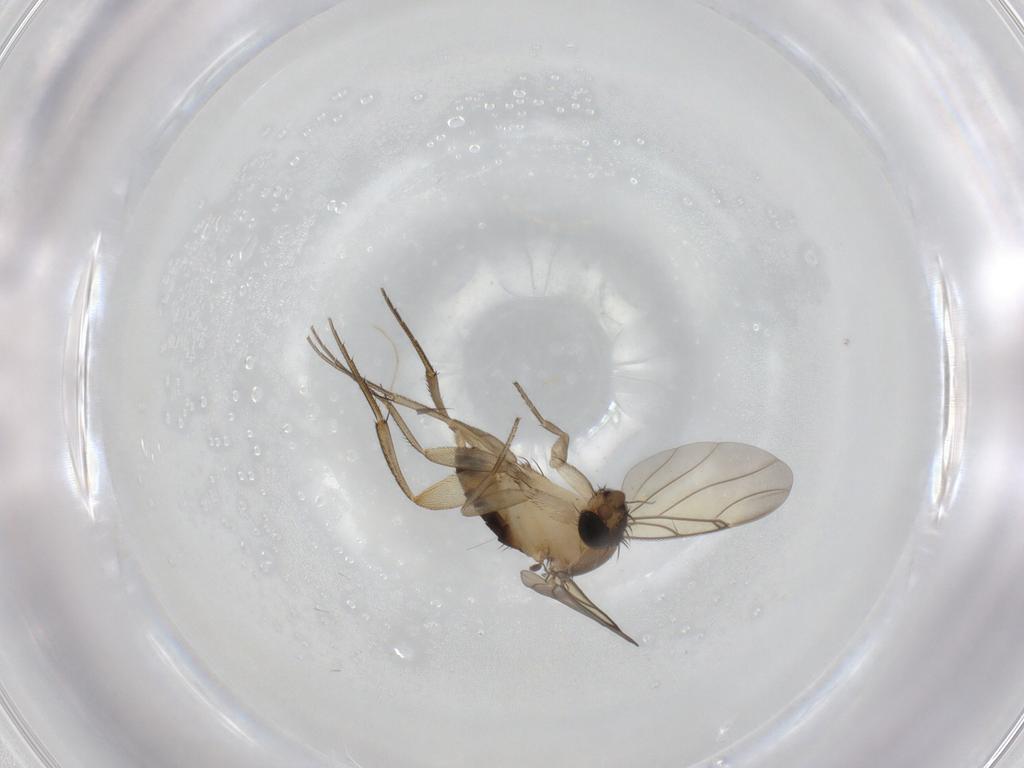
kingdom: Animalia
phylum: Arthropoda
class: Insecta
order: Diptera
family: Phoridae
